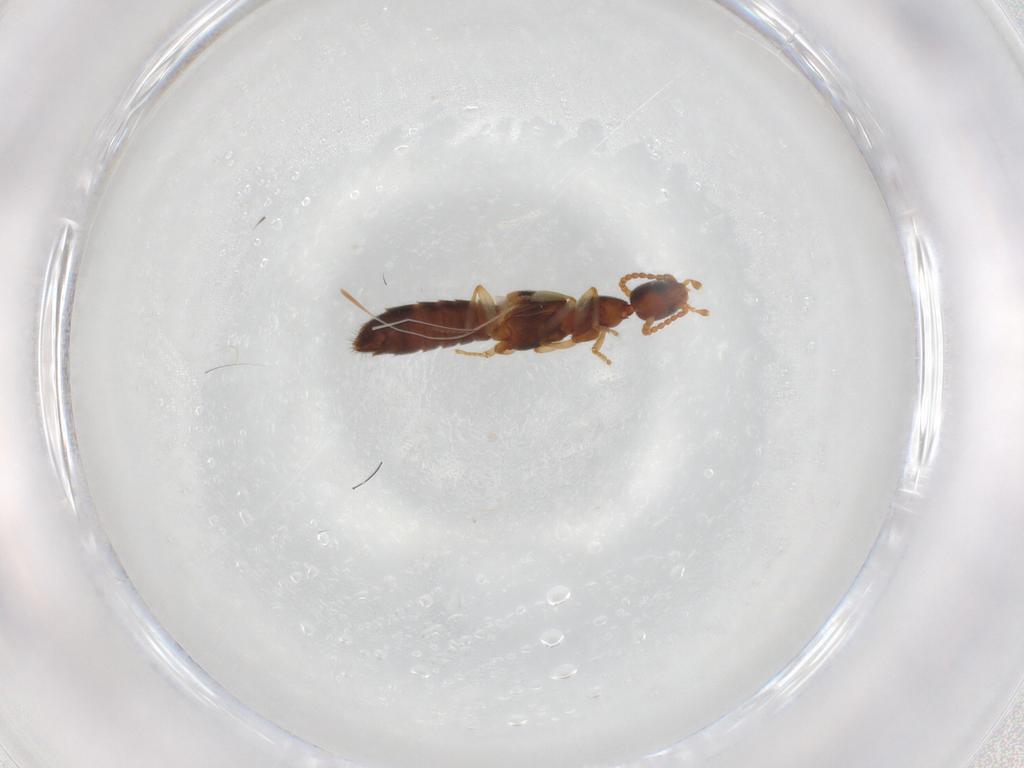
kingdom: Animalia
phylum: Arthropoda
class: Insecta
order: Coleoptera
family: Staphylinidae
